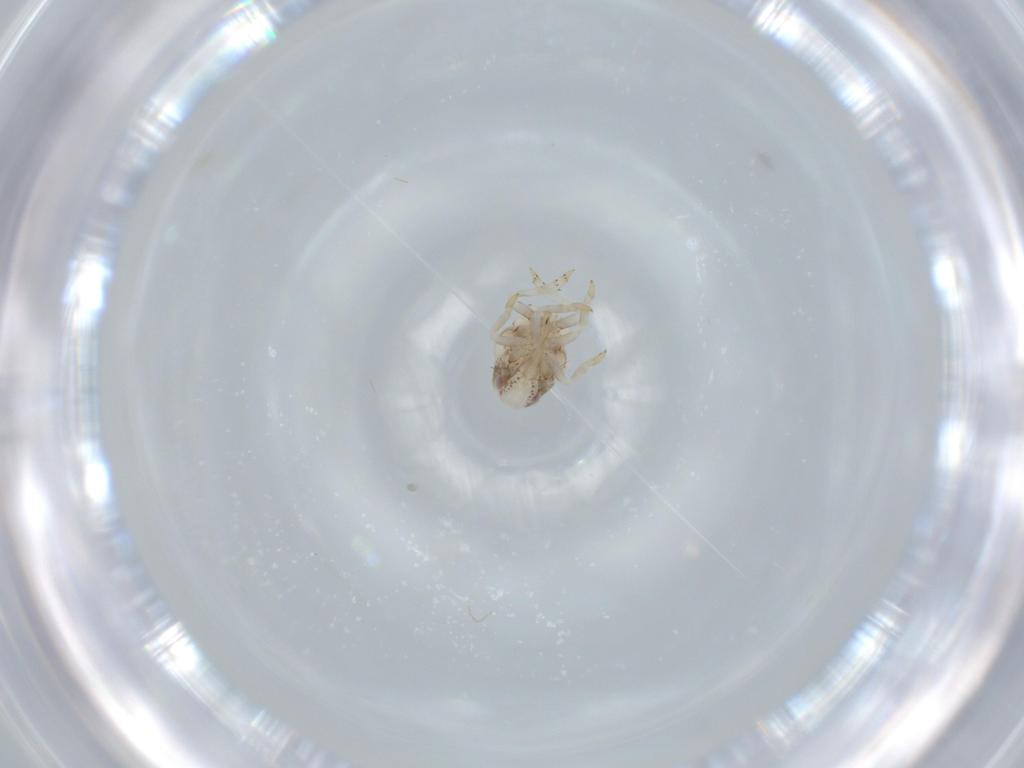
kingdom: Animalia
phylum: Arthropoda
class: Insecta
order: Hemiptera
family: Acanaloniidae
